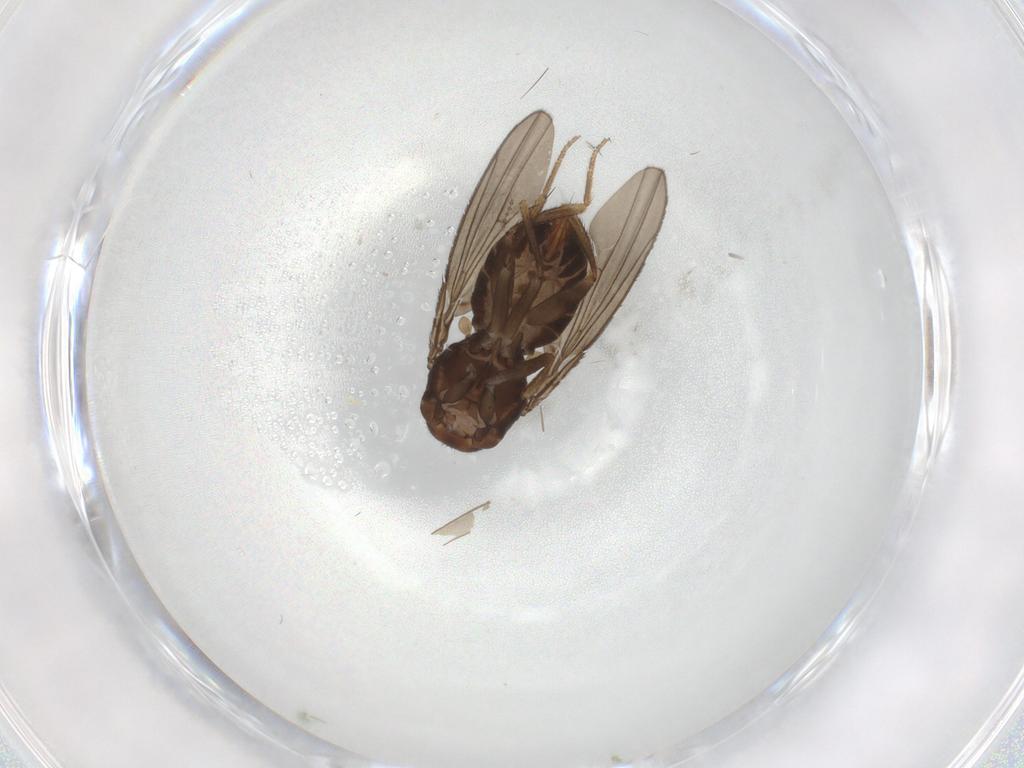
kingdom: Animalia
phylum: Arthropoda
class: Insecta
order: Diptera
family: Drosophilidae
